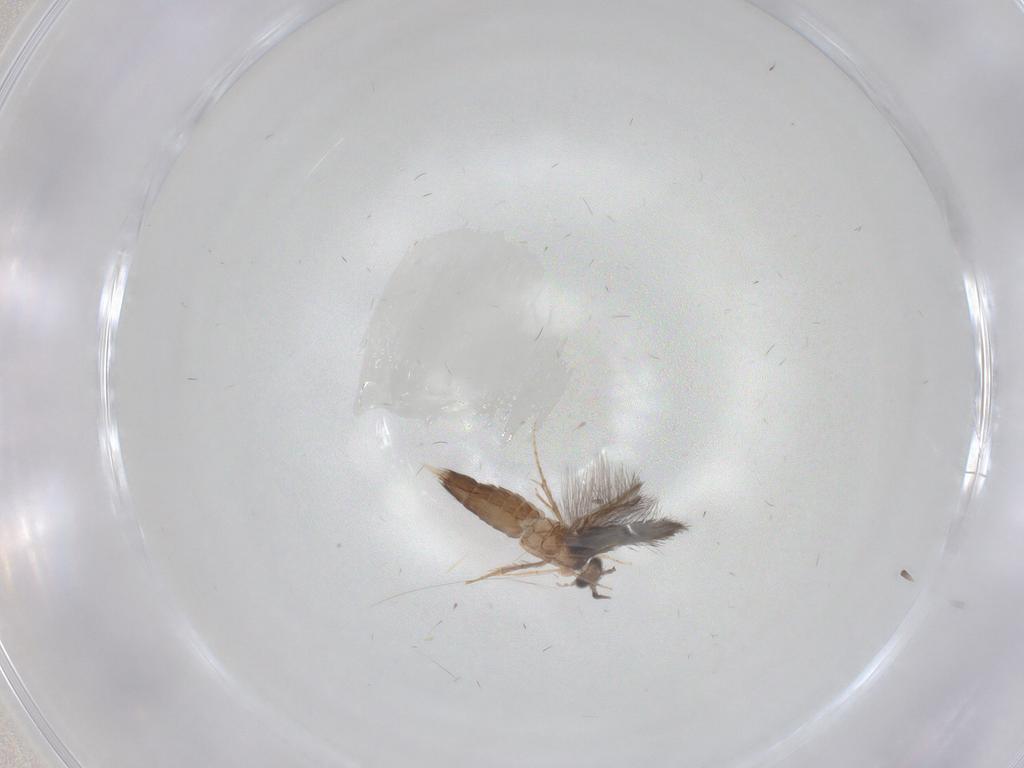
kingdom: Animalia
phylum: Arthropoda
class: Insecta
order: Trichoptera
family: Hydroptilidae
